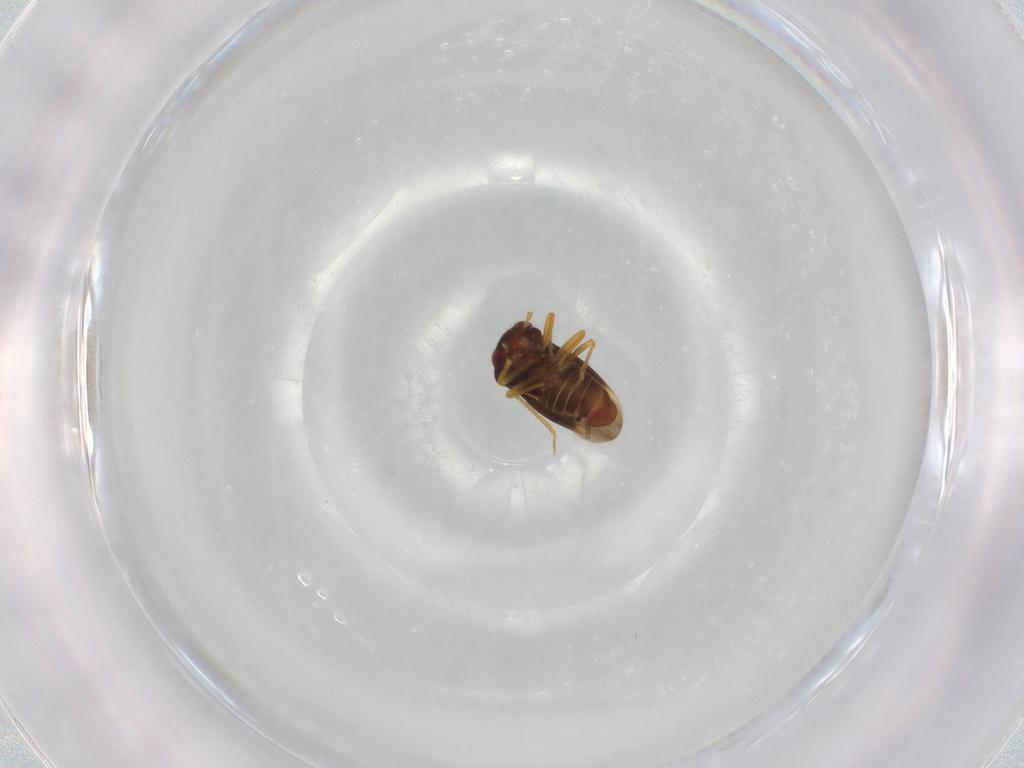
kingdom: Animalia
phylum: Arthropoda
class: Insecta
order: Hemiptera
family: Schizopteridae
